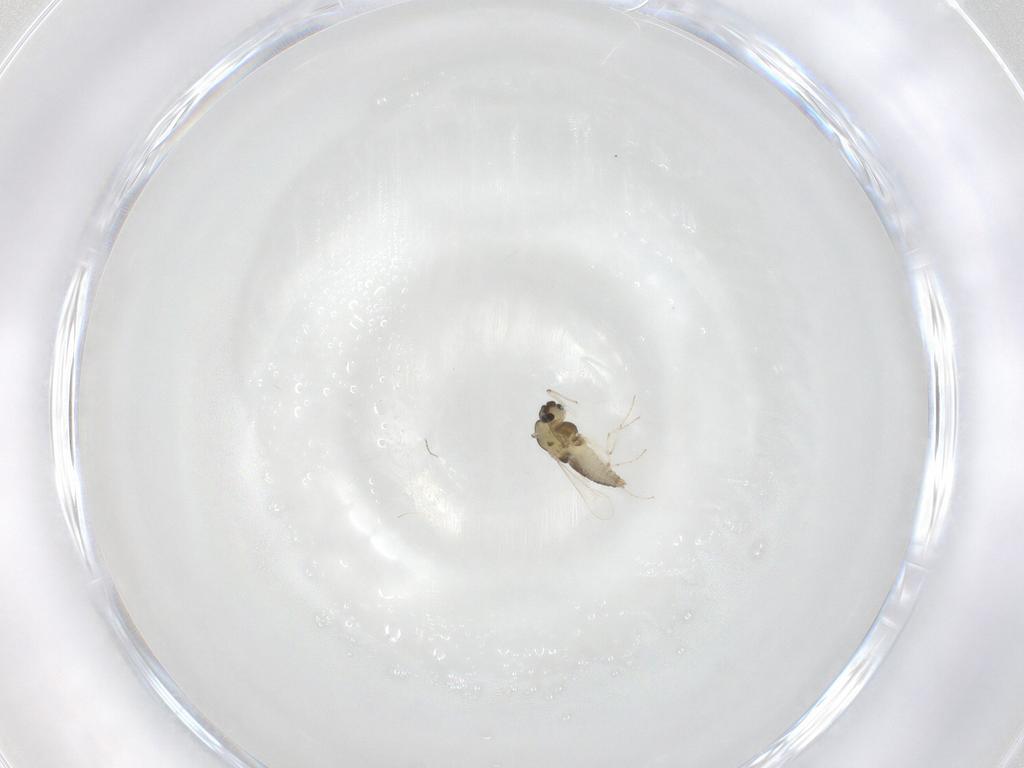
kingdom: Animalia
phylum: Arthropoda
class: Insecta
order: Diptera
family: Chironomidae
